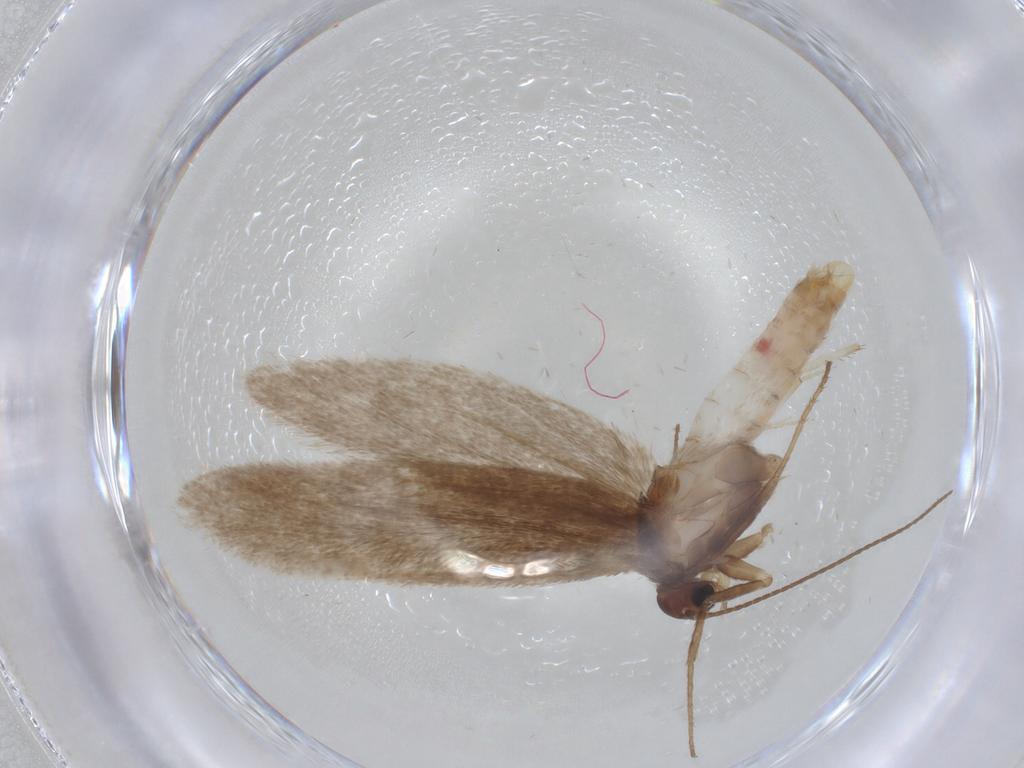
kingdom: Animalia
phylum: Arthropoda
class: Insecta
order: Lepidoptera
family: Limacodidae
